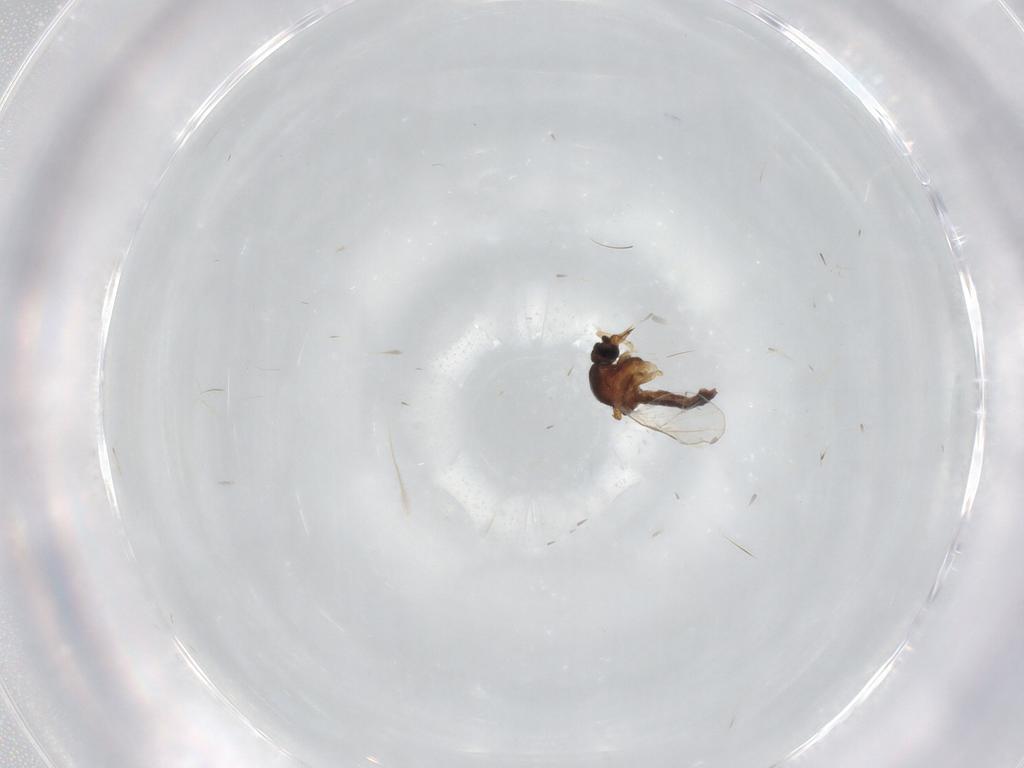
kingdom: Animalia
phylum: Arthropoda
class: Insecta
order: Diptera
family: Ceratopogonidae
